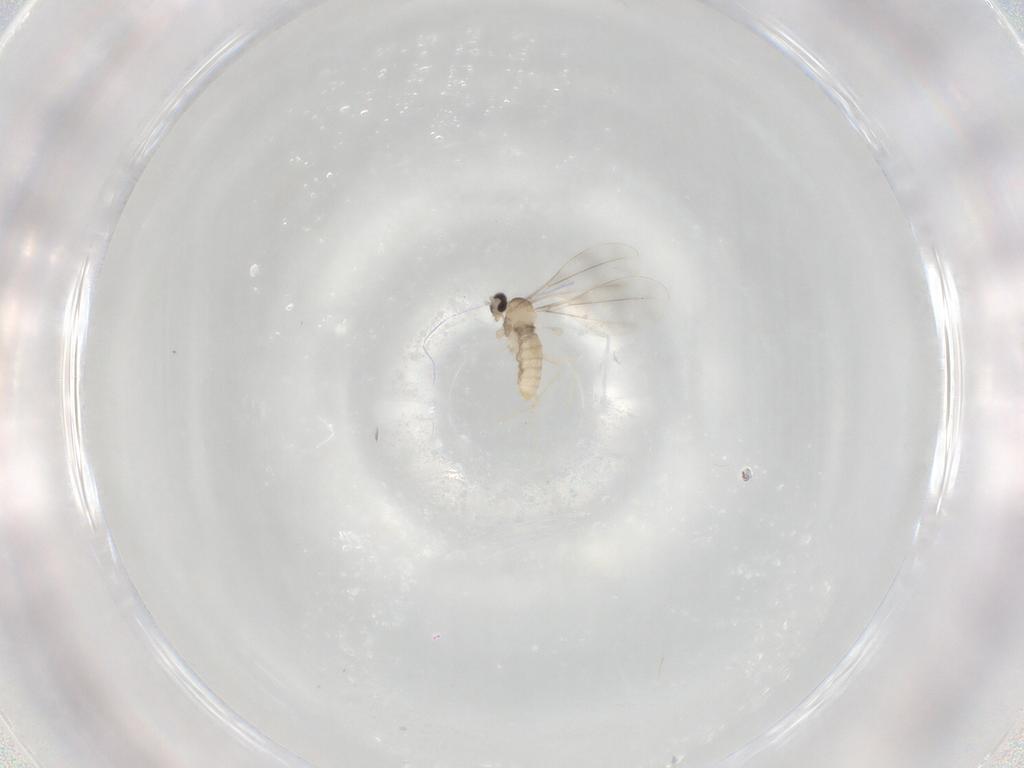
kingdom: Animalia
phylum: Arthropoda
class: Insecta
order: Diptera
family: Cecidomyiidae
